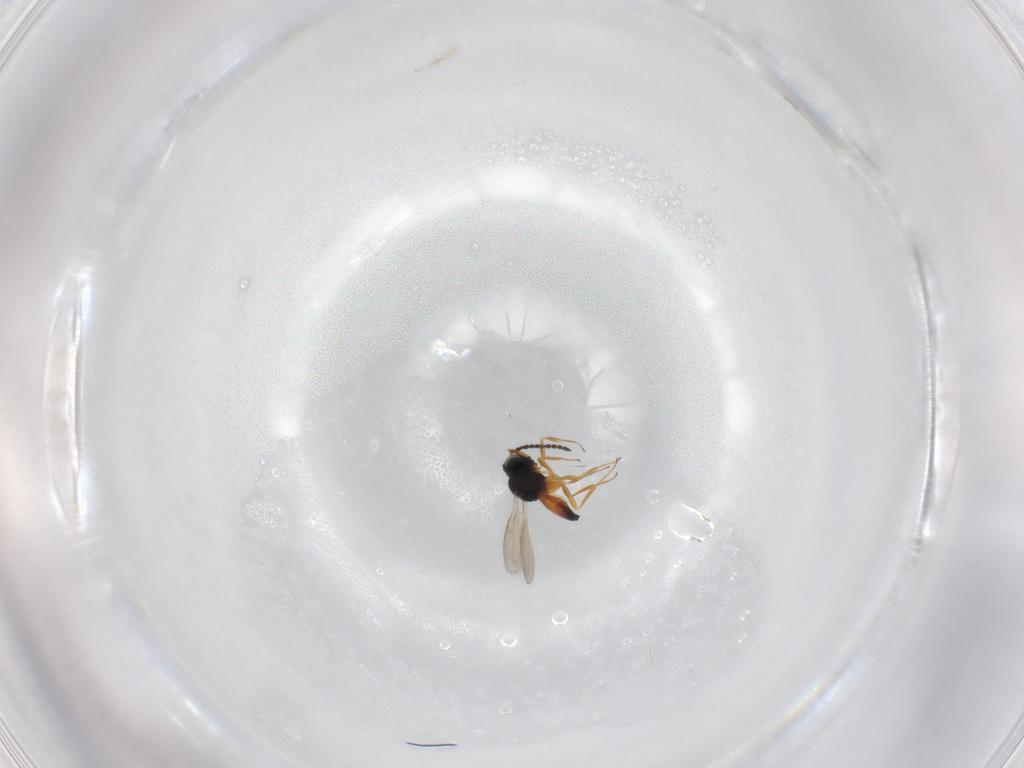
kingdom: Animalia
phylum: Arthropoda
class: Insecta
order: Hymenoptera
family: Scelionidae
